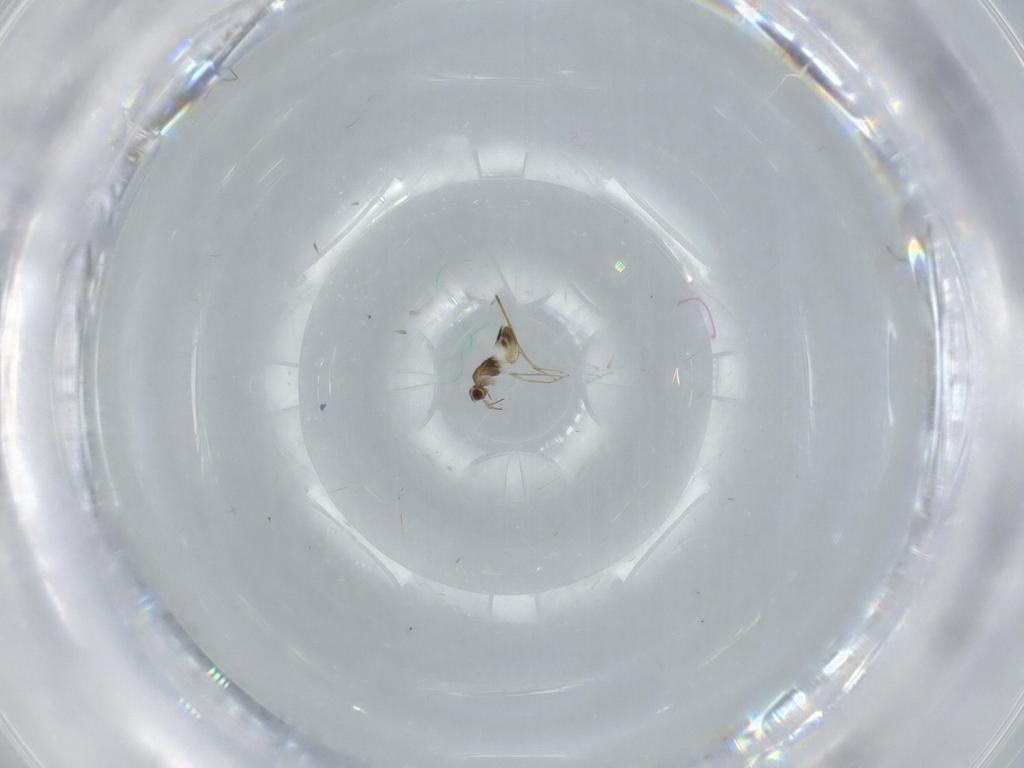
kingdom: Animalia
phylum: Arthropoda
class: Insecta
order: Hymenoptera
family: Mymaridae
